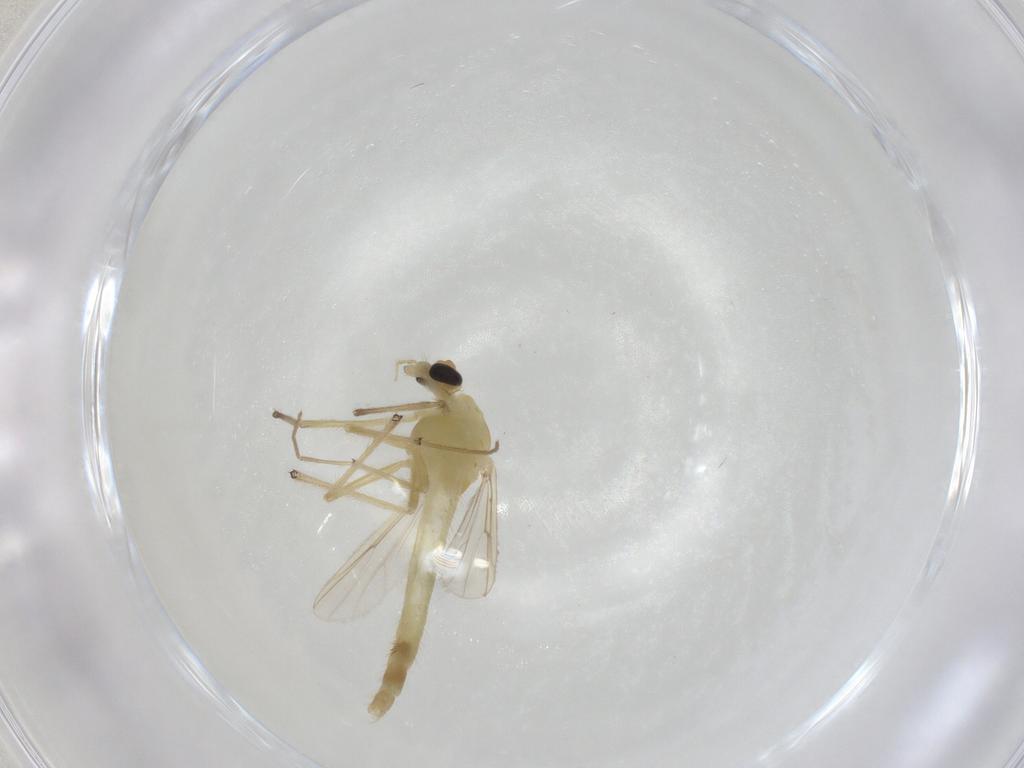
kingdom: Animalia
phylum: Arthropoda
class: Insecta
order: Diptera
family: Chironomidae
